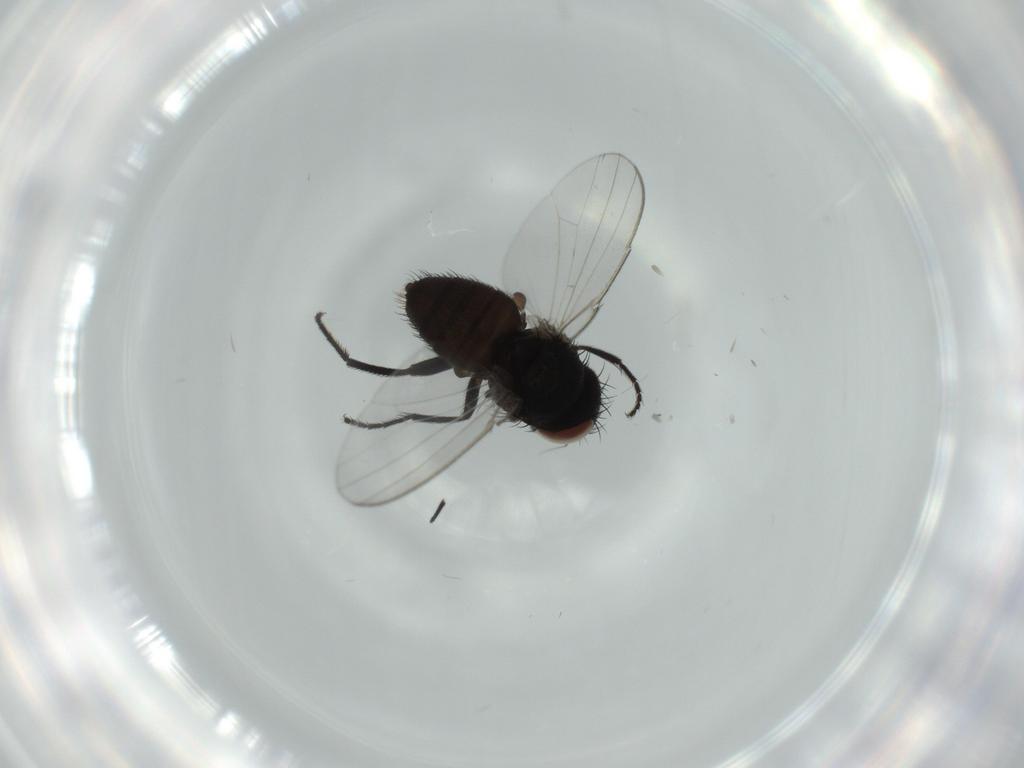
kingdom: Animalia
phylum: Arthropoda
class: Insecta
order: Diptera
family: Milichiidae
